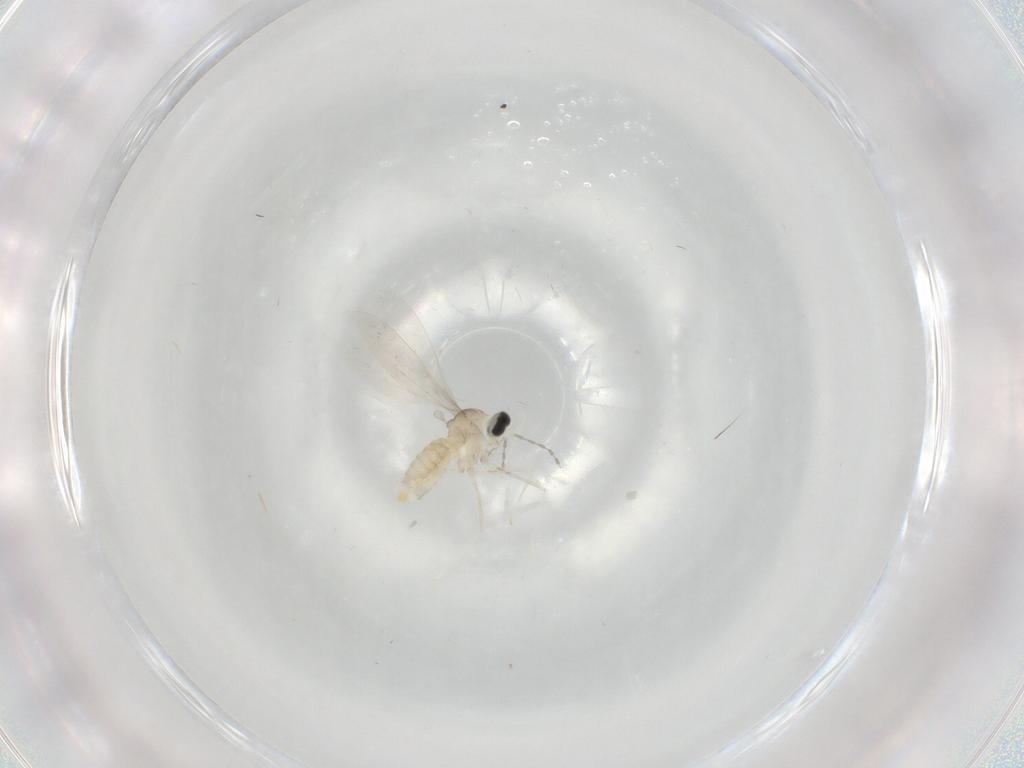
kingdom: Animalia
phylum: Arthropoda
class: Insecta
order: Diptera
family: Cecidomyiidae
